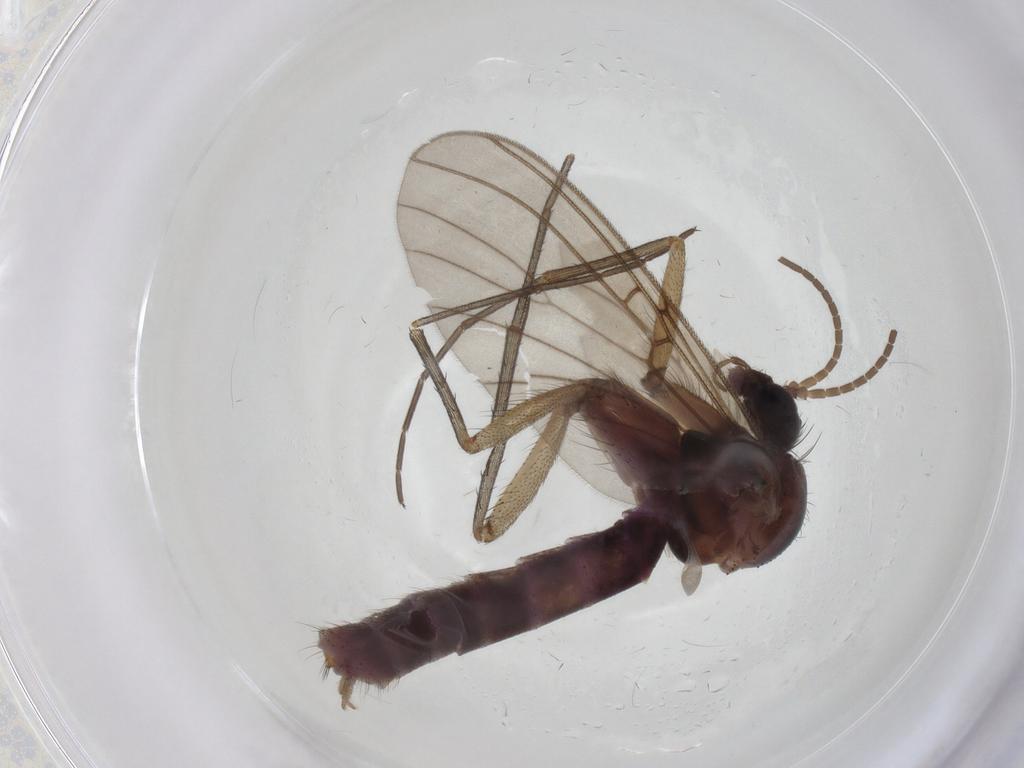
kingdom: Animalia
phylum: Arthropoda
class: Insecta
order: Diptera
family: Mycetophilidae
